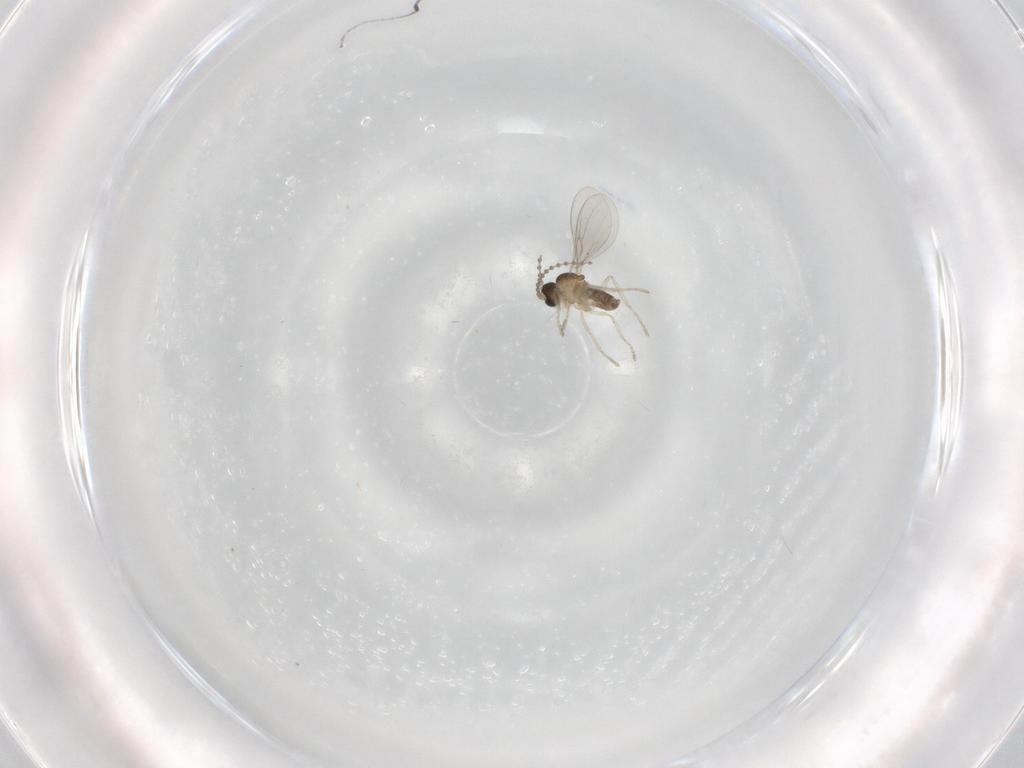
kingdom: Animalia
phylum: Arthropoda
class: Insecta
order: Diptera
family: Cecidomyiidae
